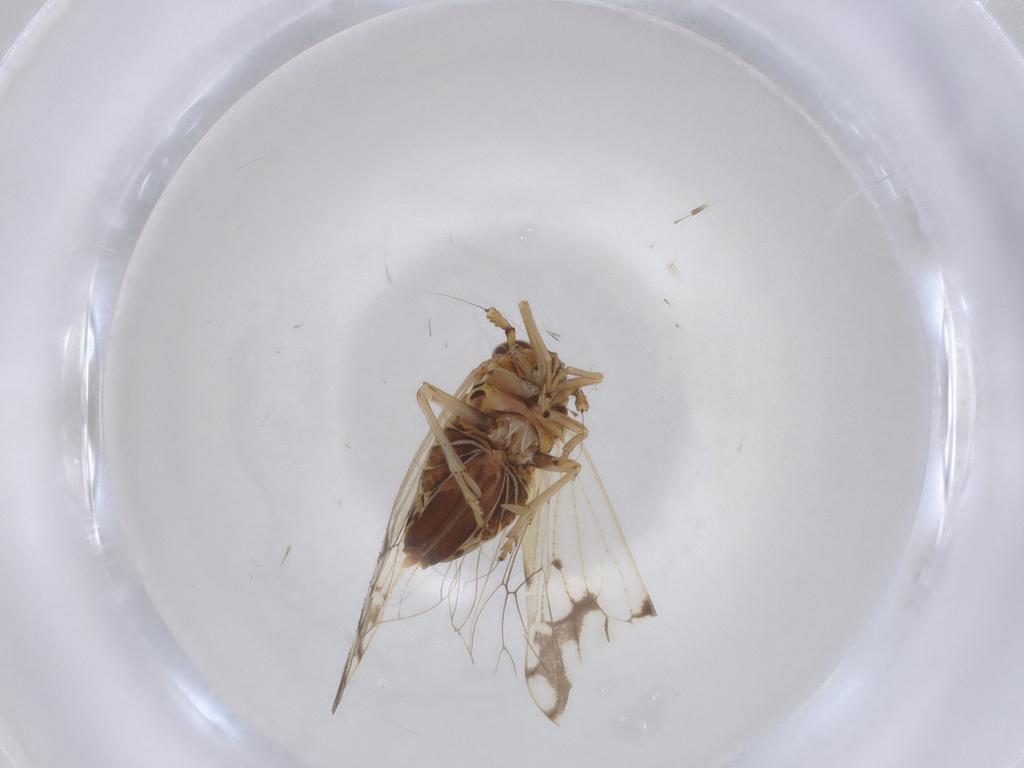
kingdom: Animalia
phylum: Arthropoda
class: Insecta
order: Hemiptera
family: Delphacidae
